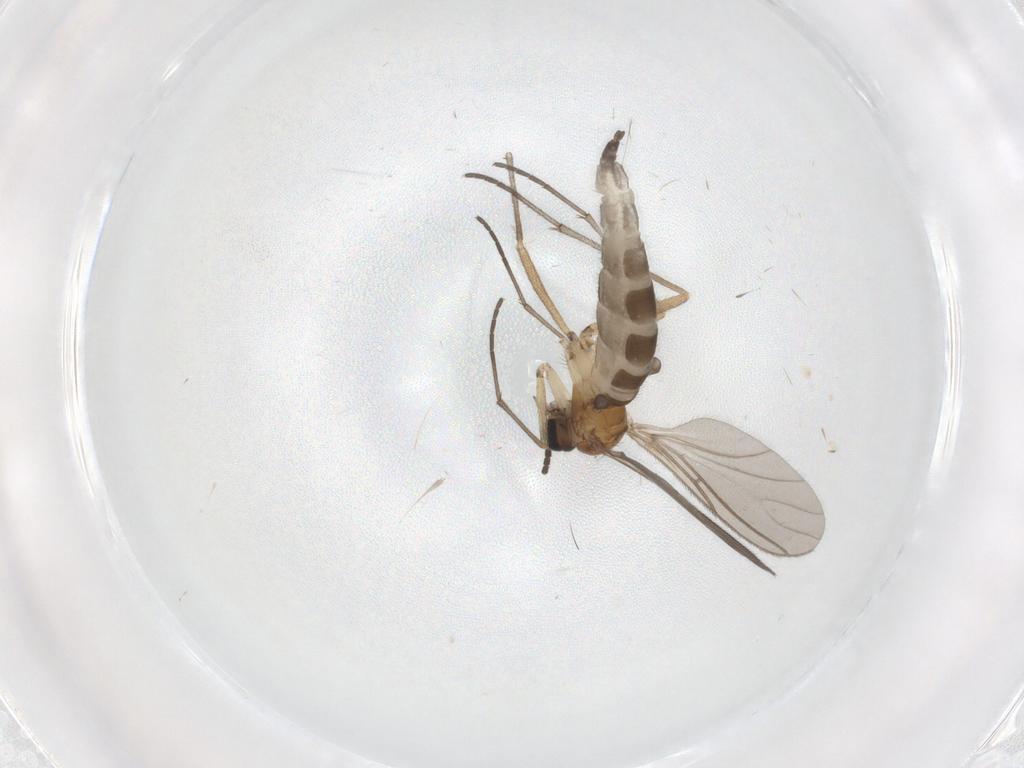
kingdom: Animalia
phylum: Arthropoda
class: Insecta
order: Diptera
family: Sciaridae
